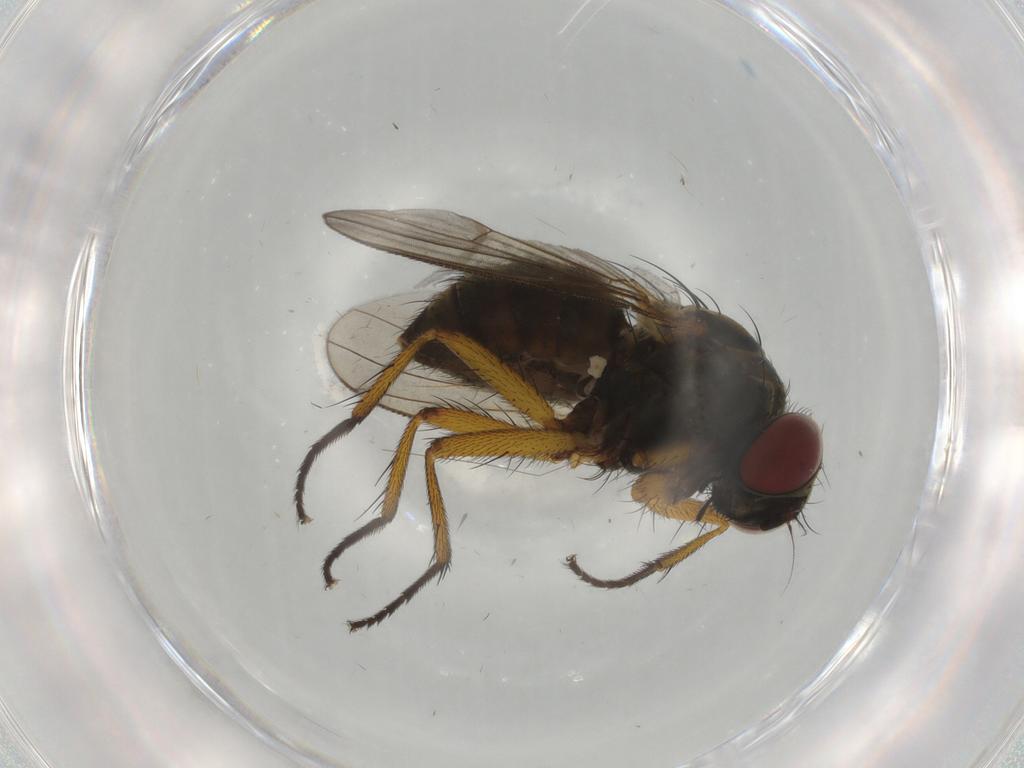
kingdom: Animalia
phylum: Arthropoda
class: Insecta
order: Diptera
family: Muscidae
